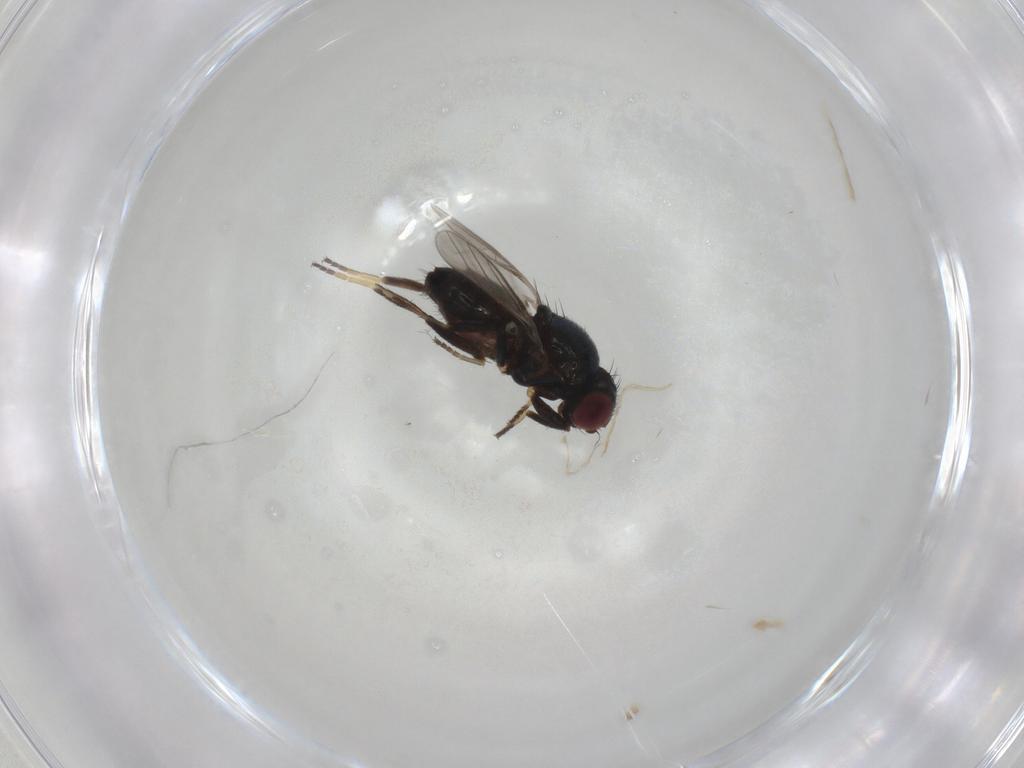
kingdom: Animalia
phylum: Arthropoda
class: Insecta
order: Diptera
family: Chloropidae
